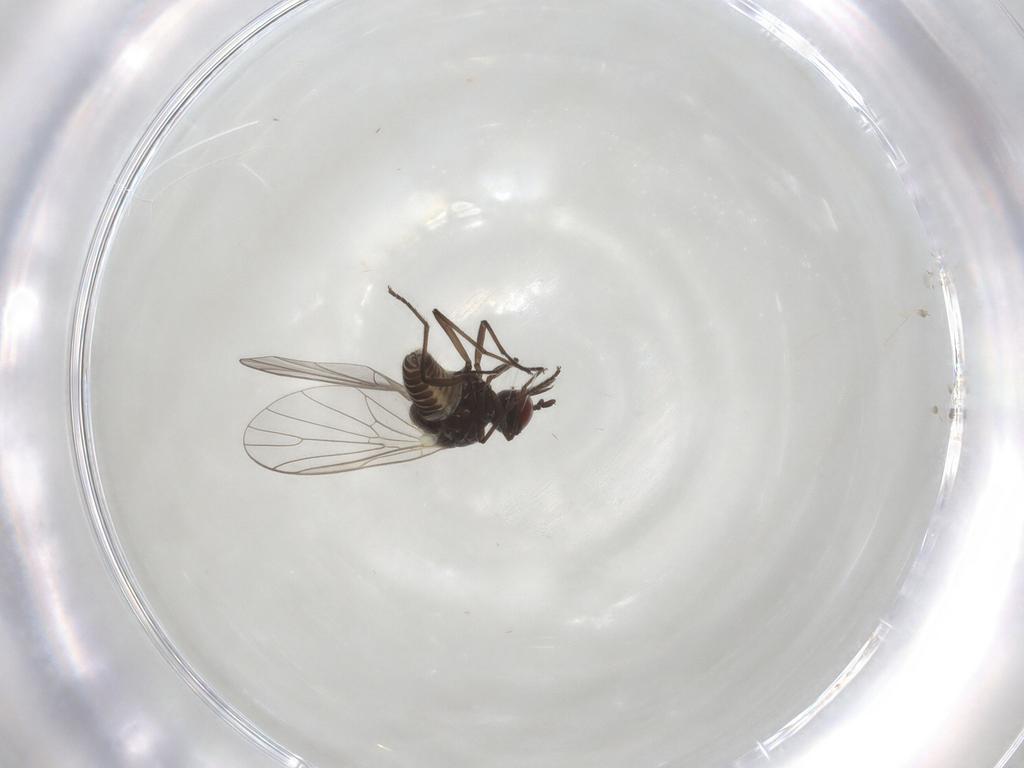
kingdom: Animalia
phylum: Arthropoda
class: Insecta
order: Diptera
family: Bombyliidae
